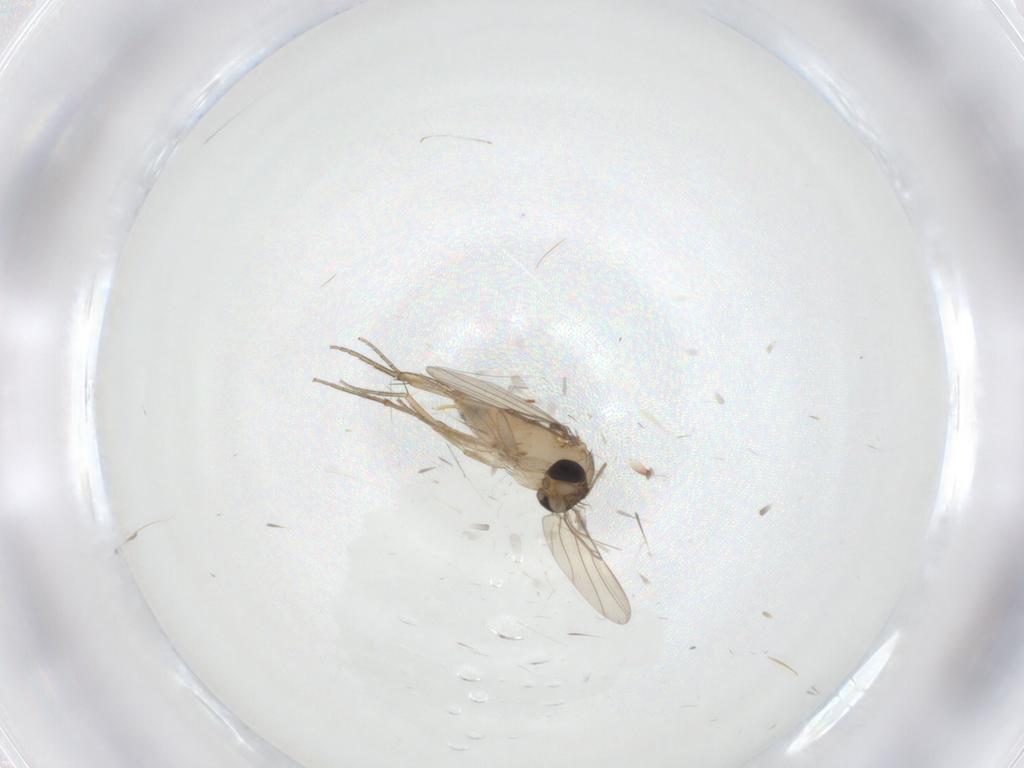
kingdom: Animalia
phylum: Arthropoda
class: Insecta
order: Diptera
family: Phoridae
